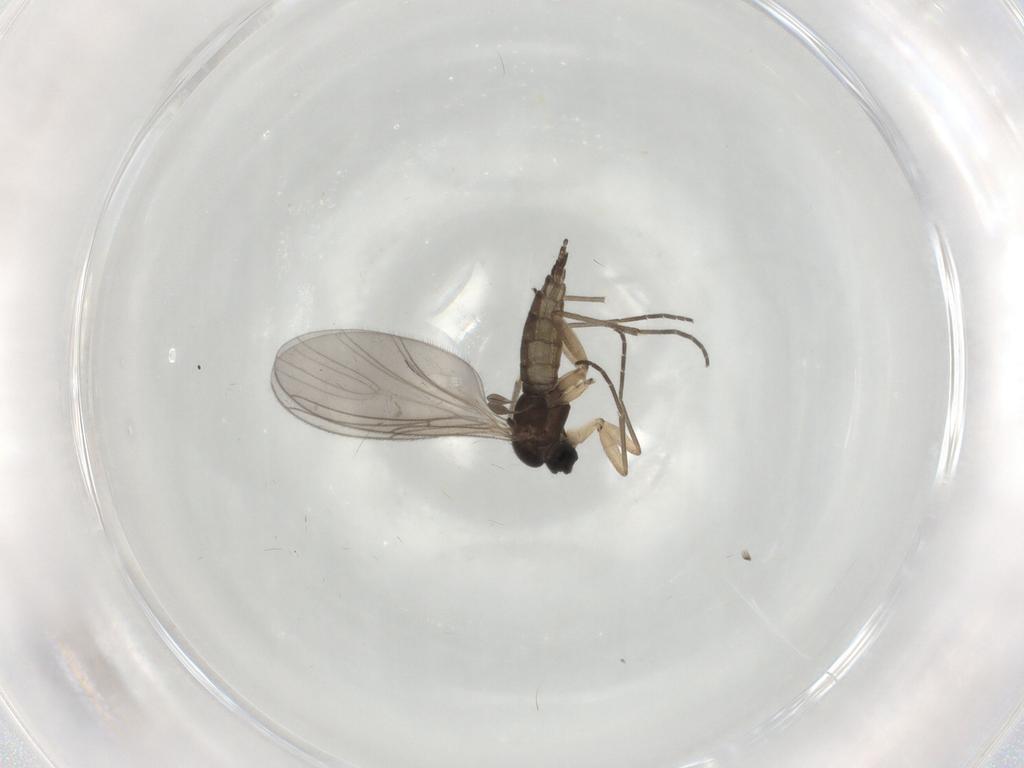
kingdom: Animalia
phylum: Arthropoda
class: Insecta
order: Diptera
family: Sciaridae
